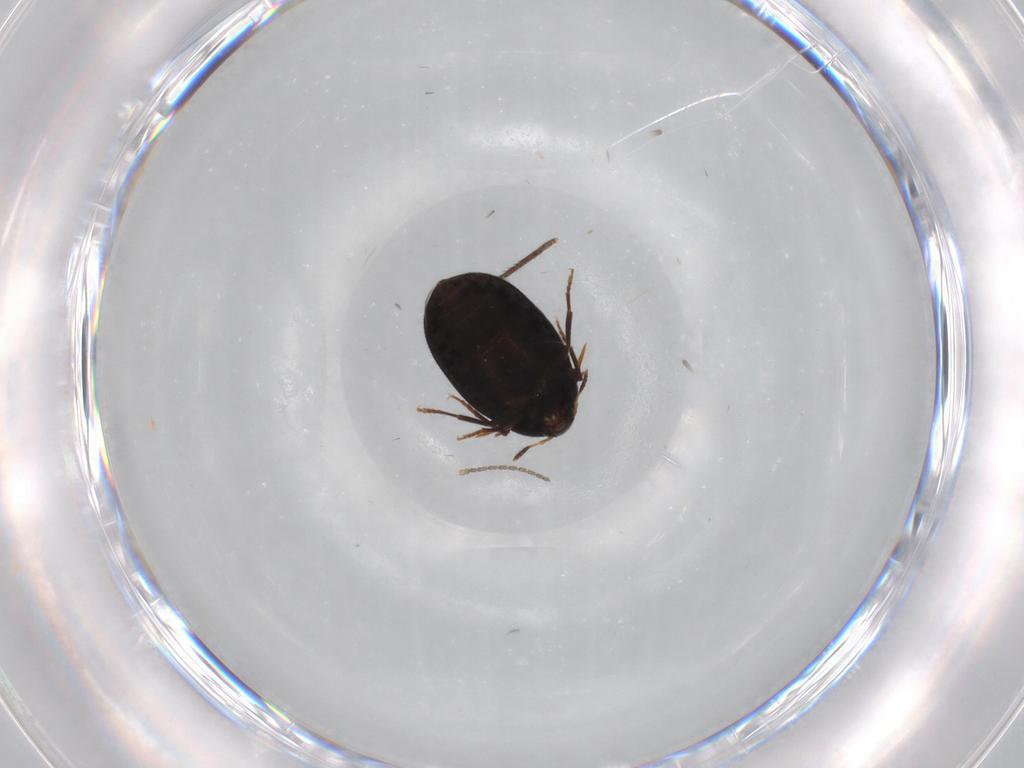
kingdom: Animalia
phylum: Arthropoda
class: Insecta
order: Coleoptera
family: Melandryidae
